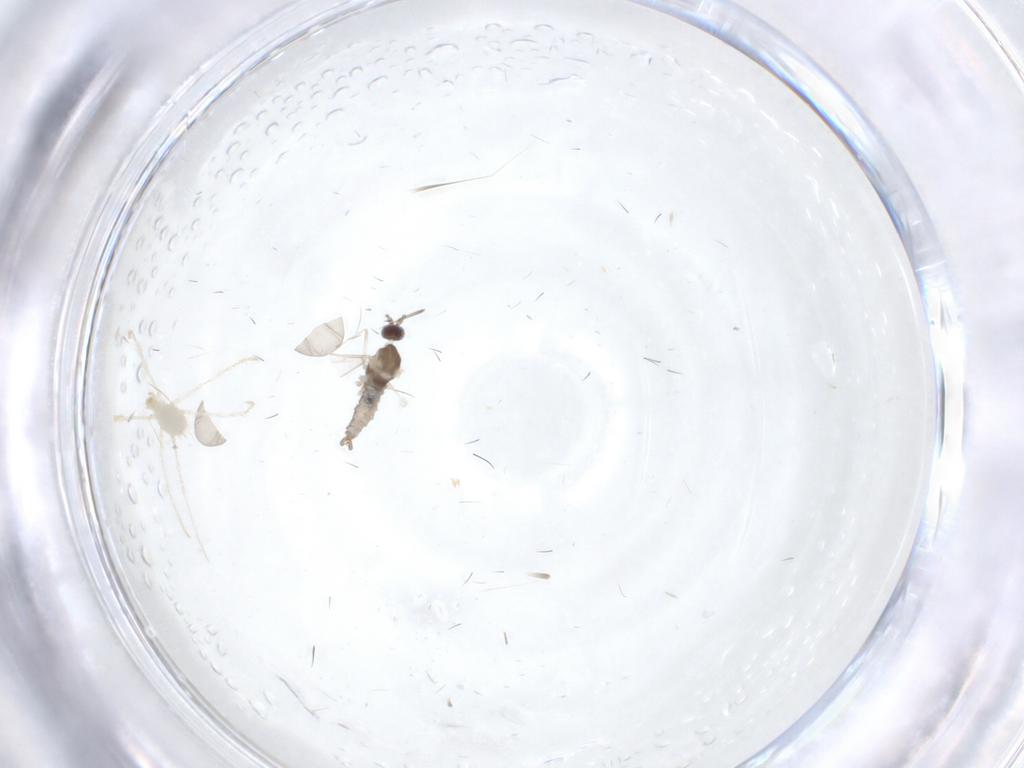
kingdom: Animalia
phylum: Arthropoda
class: Insecta
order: Diptera
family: Cecidomyiidae
